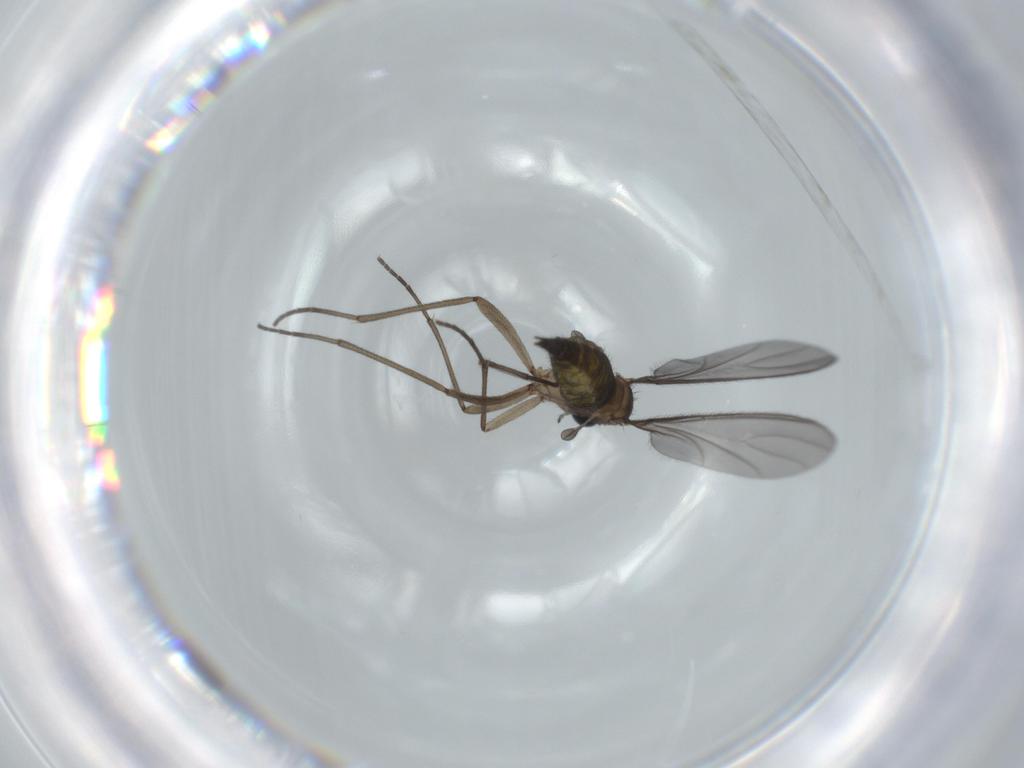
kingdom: Animalia
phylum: Arthropoda
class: Insecta
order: Diptera
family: Sciaridae
